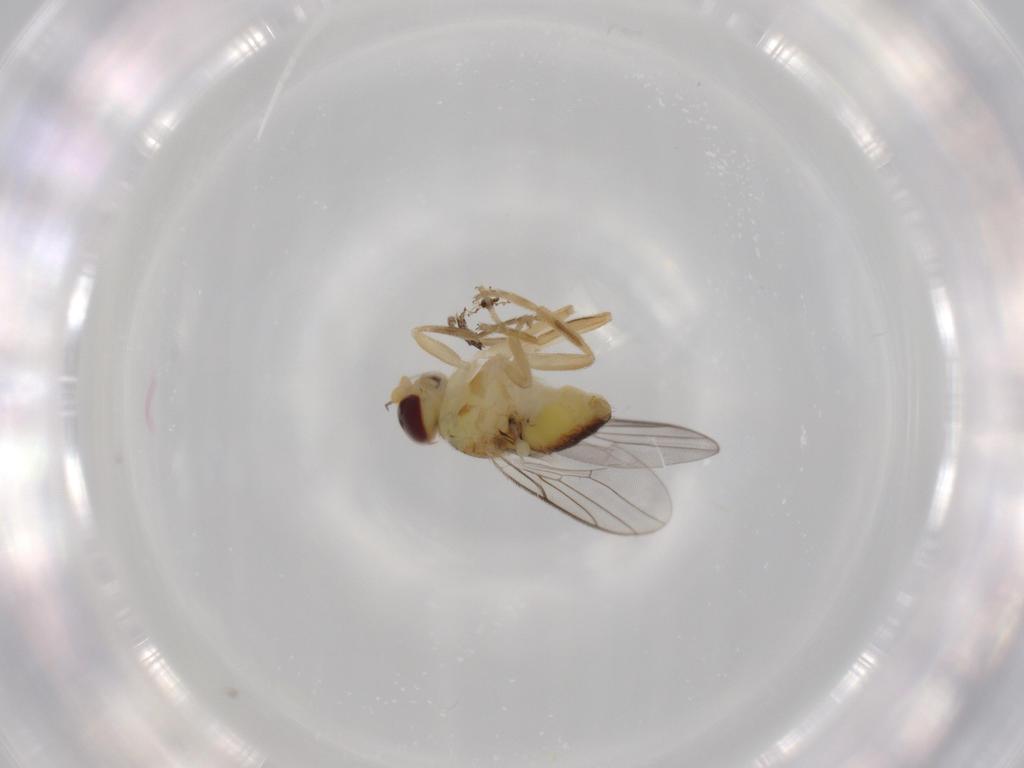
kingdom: Animalia
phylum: Arthropoda
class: Insecta
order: Diptera
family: Chloropidae
